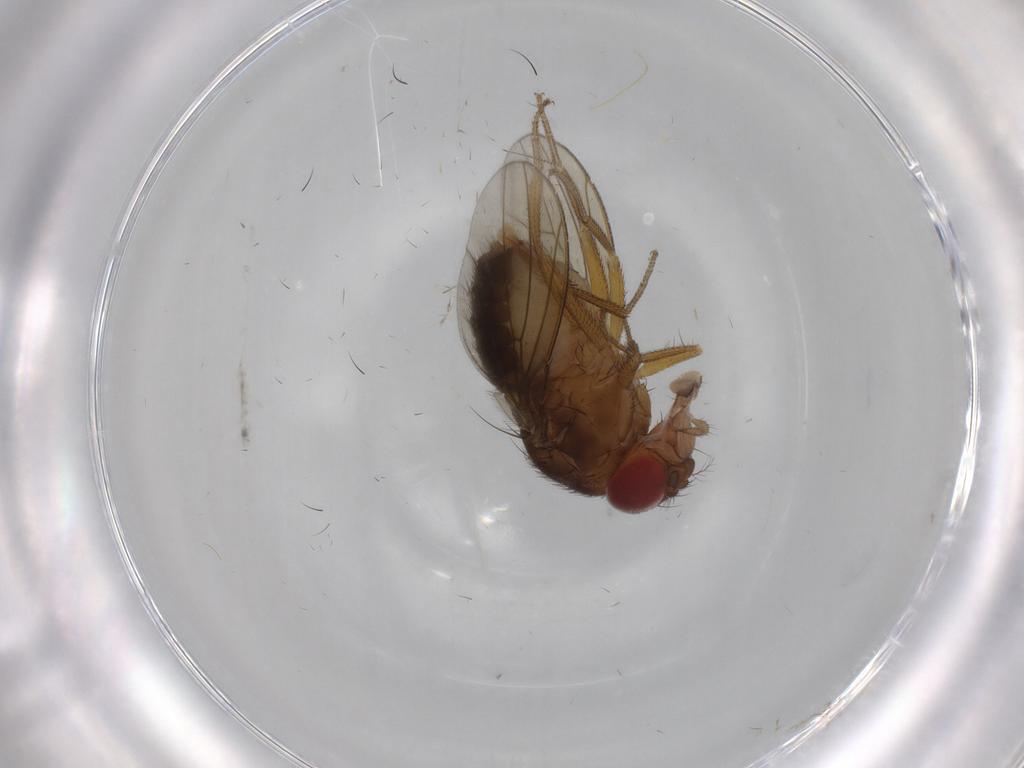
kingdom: Animalia
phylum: Arthropoda
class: Insecta
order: Diptera
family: Drosophilidae
